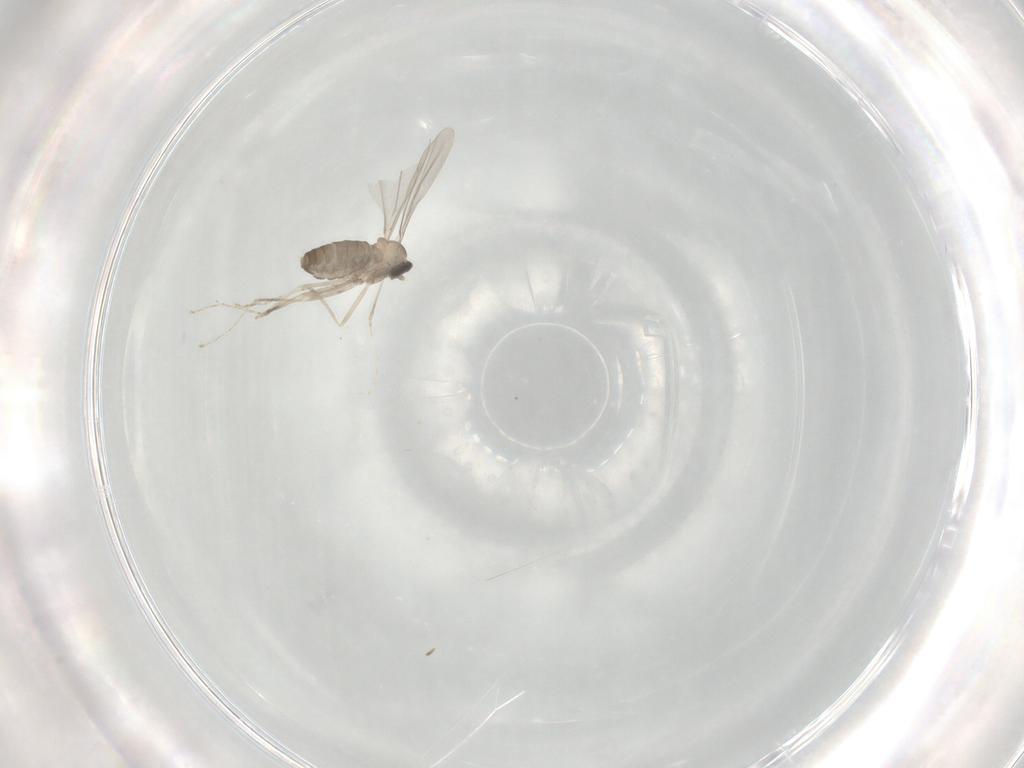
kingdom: Animalia
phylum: Arthropoda
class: Insecta
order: Diptera
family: Cecidomyiidae
